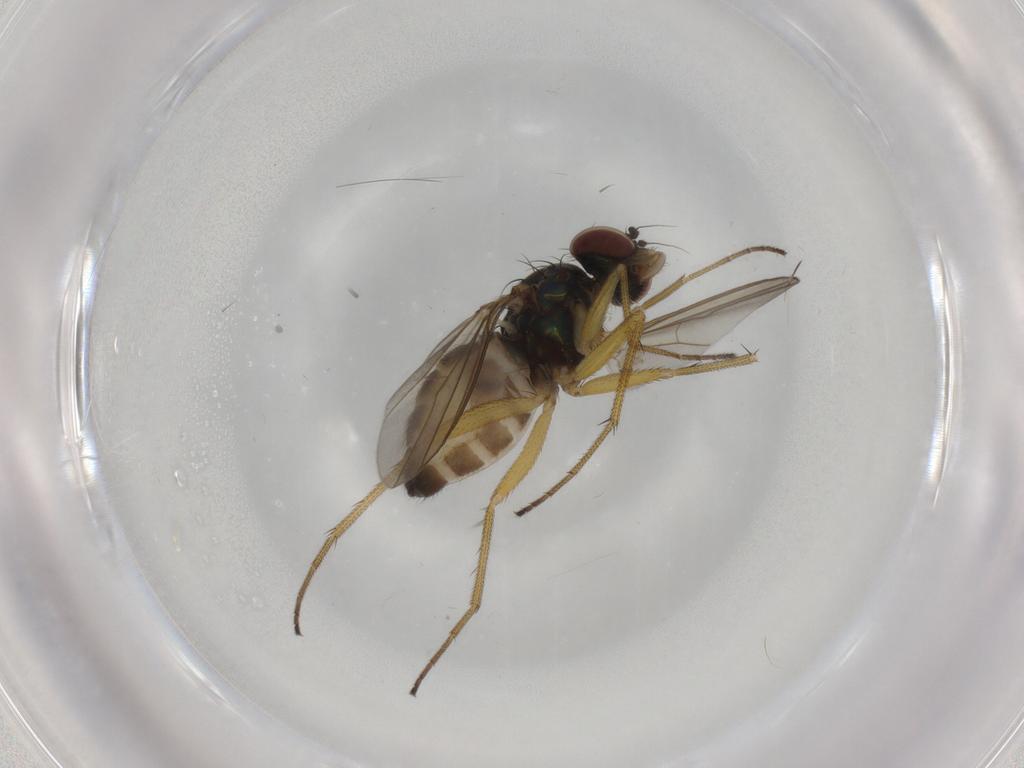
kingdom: Animalia
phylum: Arthropoda
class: Insecta
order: Diptera
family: Dolichopodidae
